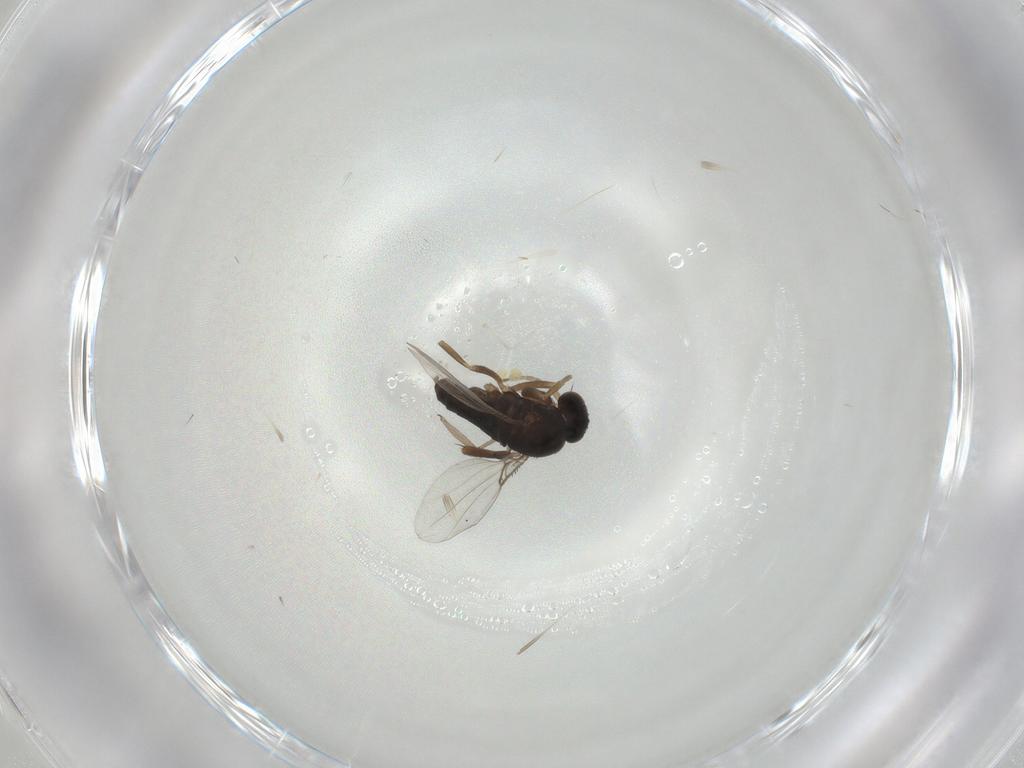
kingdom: Animalia
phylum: Arthropoda
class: Insecta
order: Diptera
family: Sciaridae
